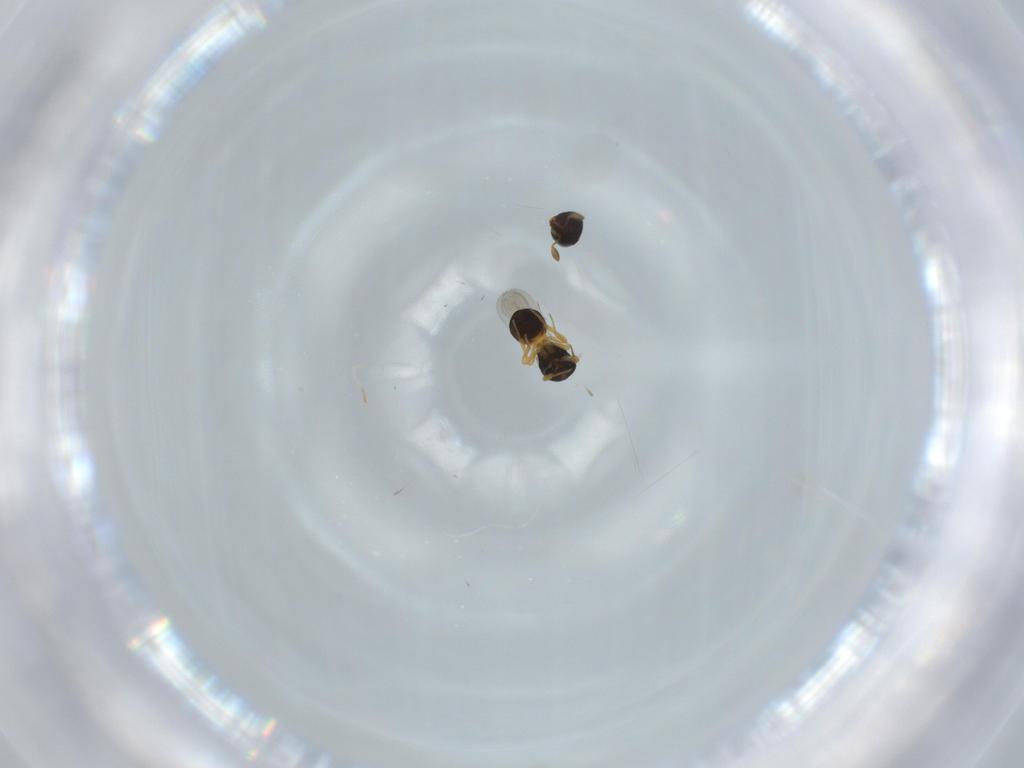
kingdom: Animalia
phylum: Arthropoda
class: Insecta
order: Hymenoptera
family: Scelionidae
